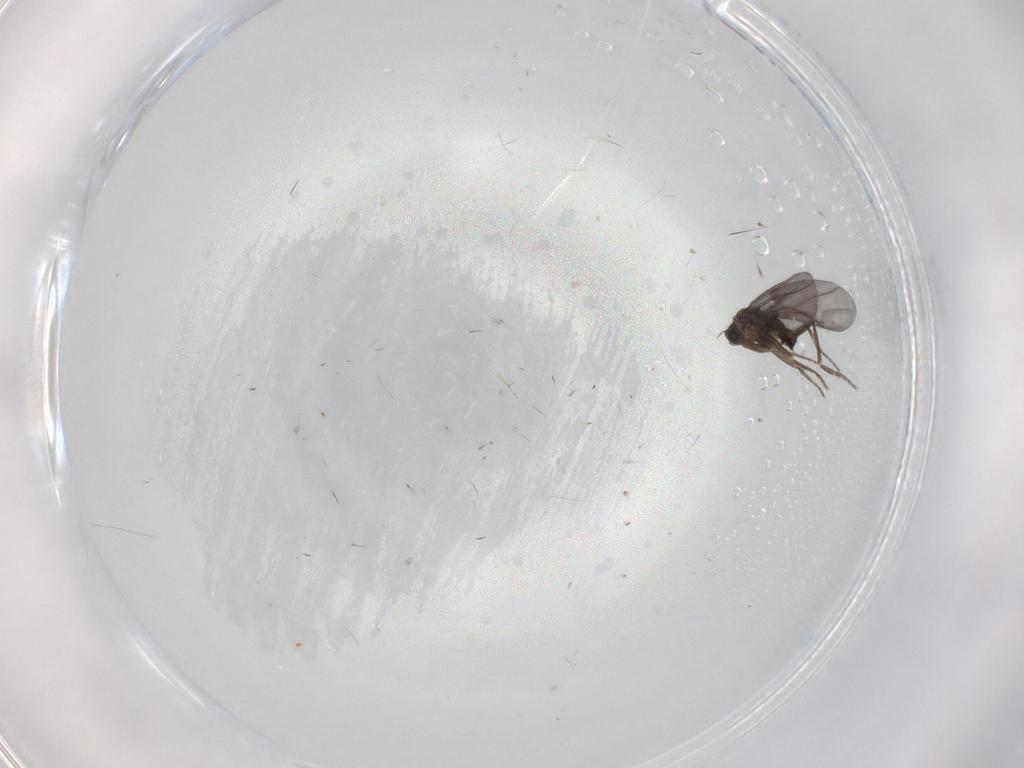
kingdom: Animalia
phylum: Arthropoda
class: Insecta
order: Diptera
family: Phoridae
